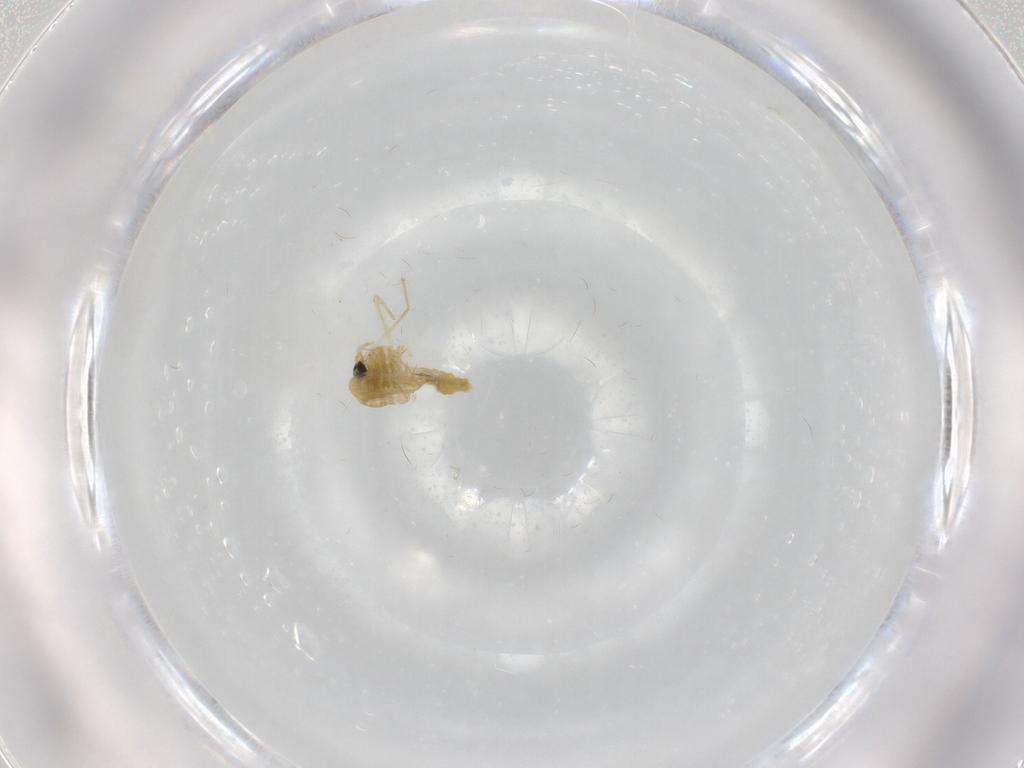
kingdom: Animalia
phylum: Arthropoda
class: Insecta
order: Diptera
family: Chironomidae
